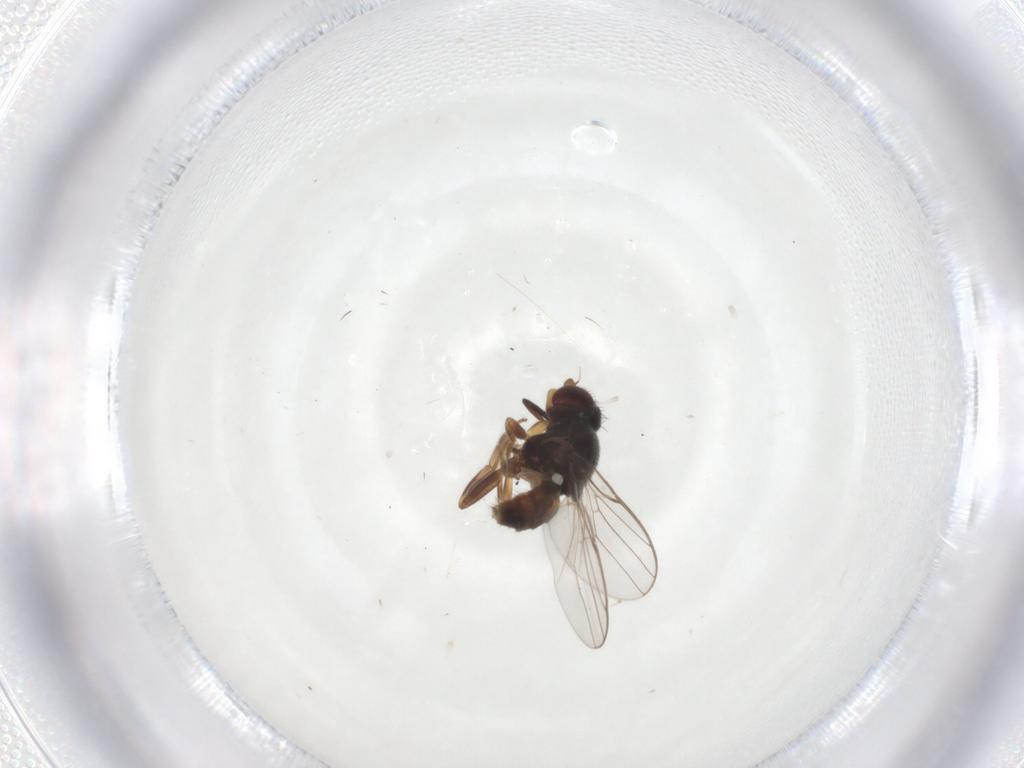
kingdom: Animalia
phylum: Arthropoda
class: Insecta
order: Diptera
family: Chloropidae
